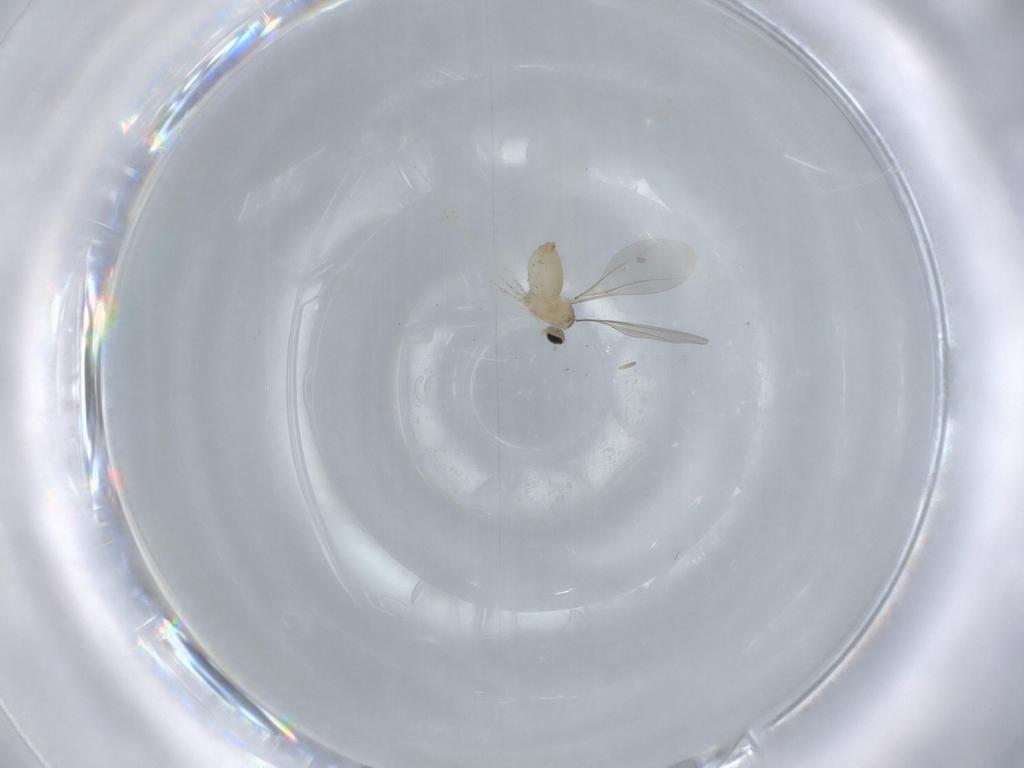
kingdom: Animalia
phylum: Arthropoda
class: Insecta
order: Diptera
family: Cecidomyiidae
